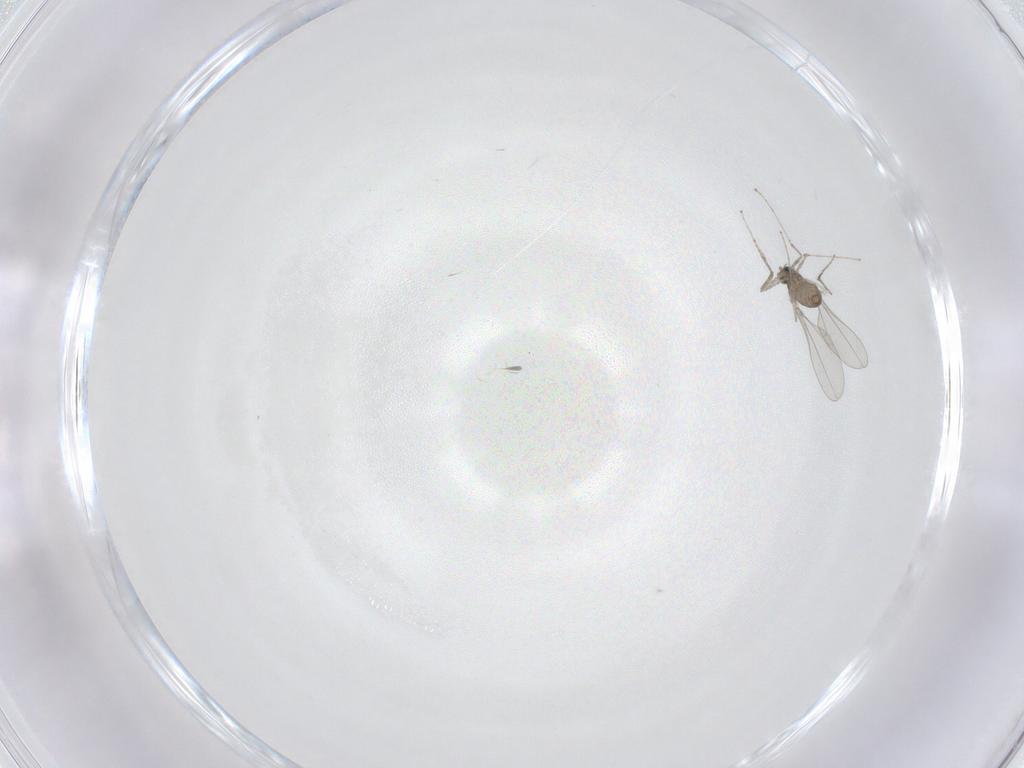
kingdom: Animalia
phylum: Arthropoda
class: Insecta
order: Diptera
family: Cecidomyiidae
